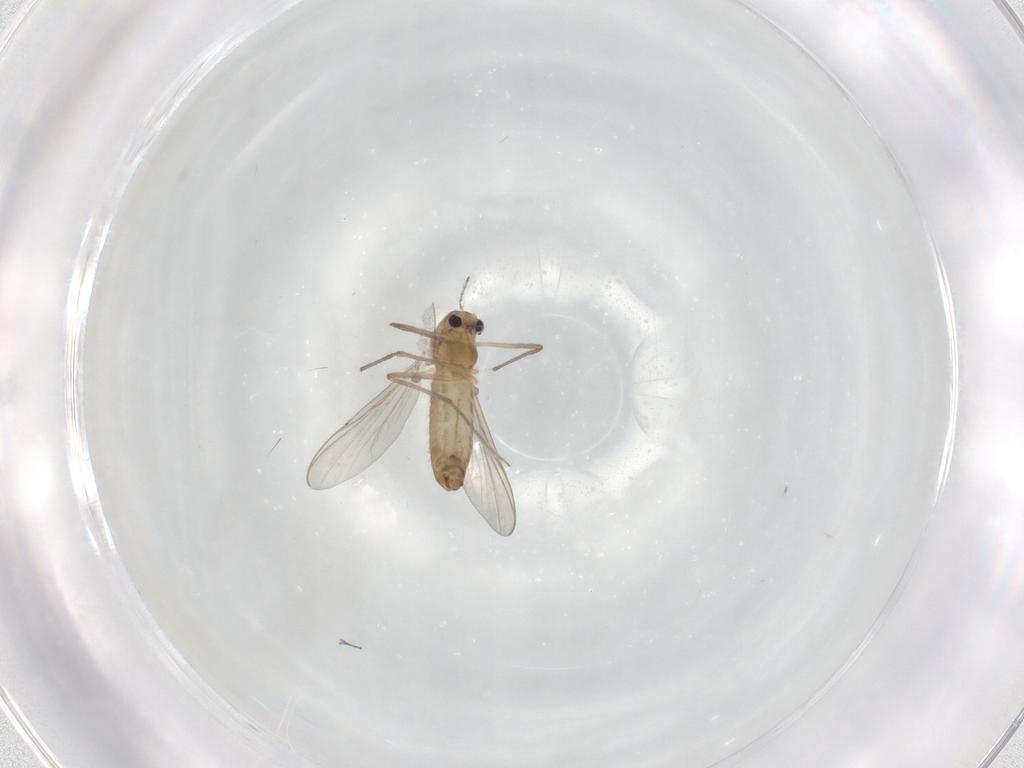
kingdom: Animalia
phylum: Arthropoda
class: Insecta
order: Diptera
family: Chironomidae
